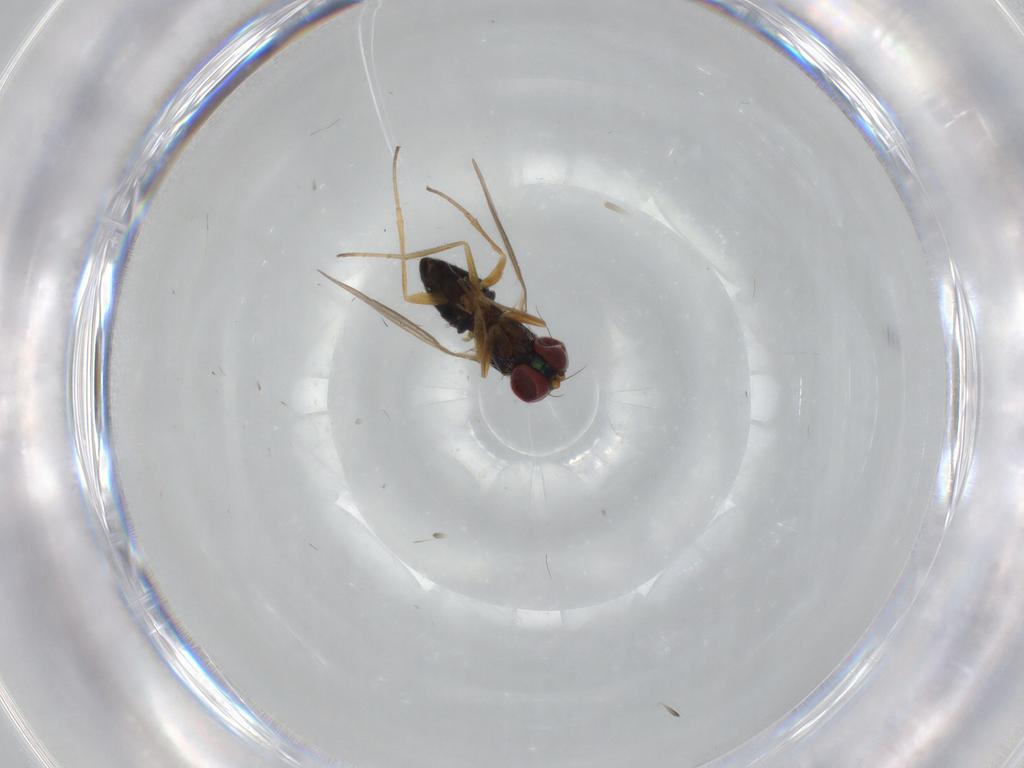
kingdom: Animalia
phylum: Arthropoda
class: Insecta
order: Diptera
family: Dolichopodidae
